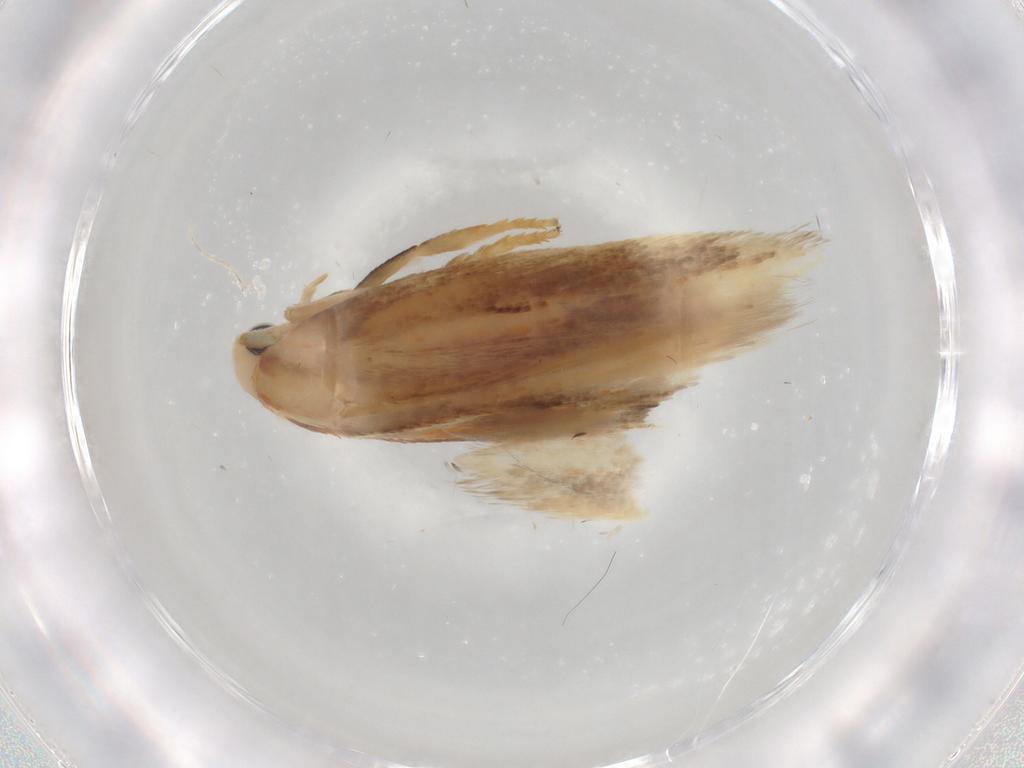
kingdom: Animalia
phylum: Arthropoda
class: Insecta
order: Lepidoptera
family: Geometridae
